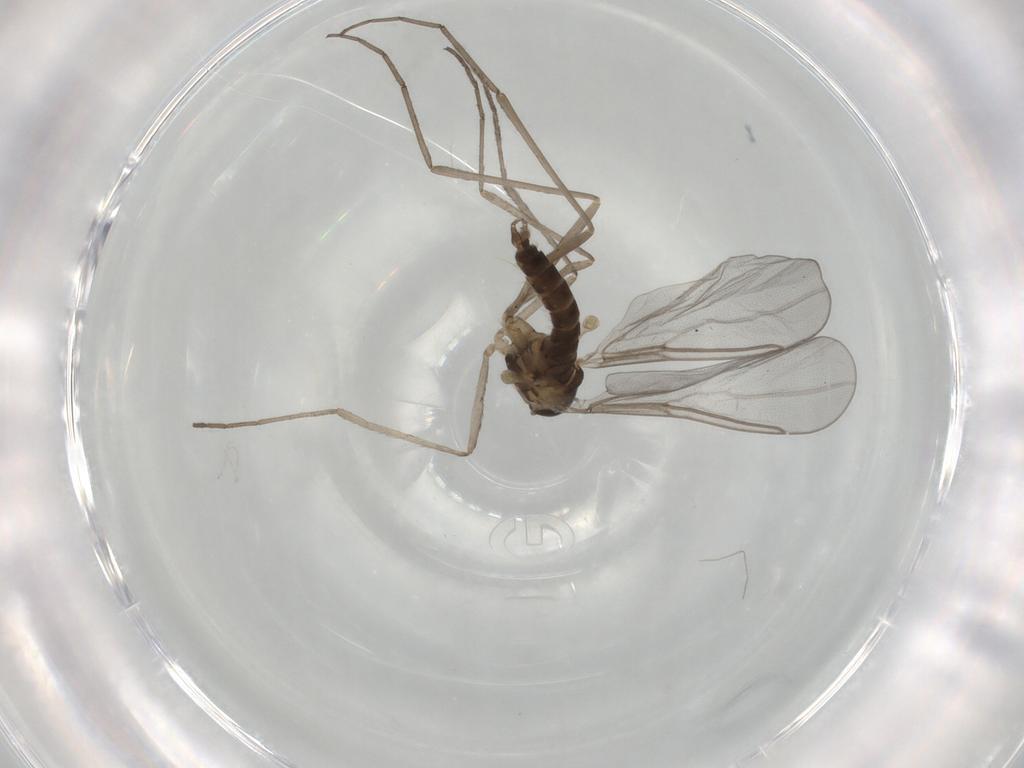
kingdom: Animalia
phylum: Arthropoda
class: Insecta
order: Diptera
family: Cecidomyiidae
